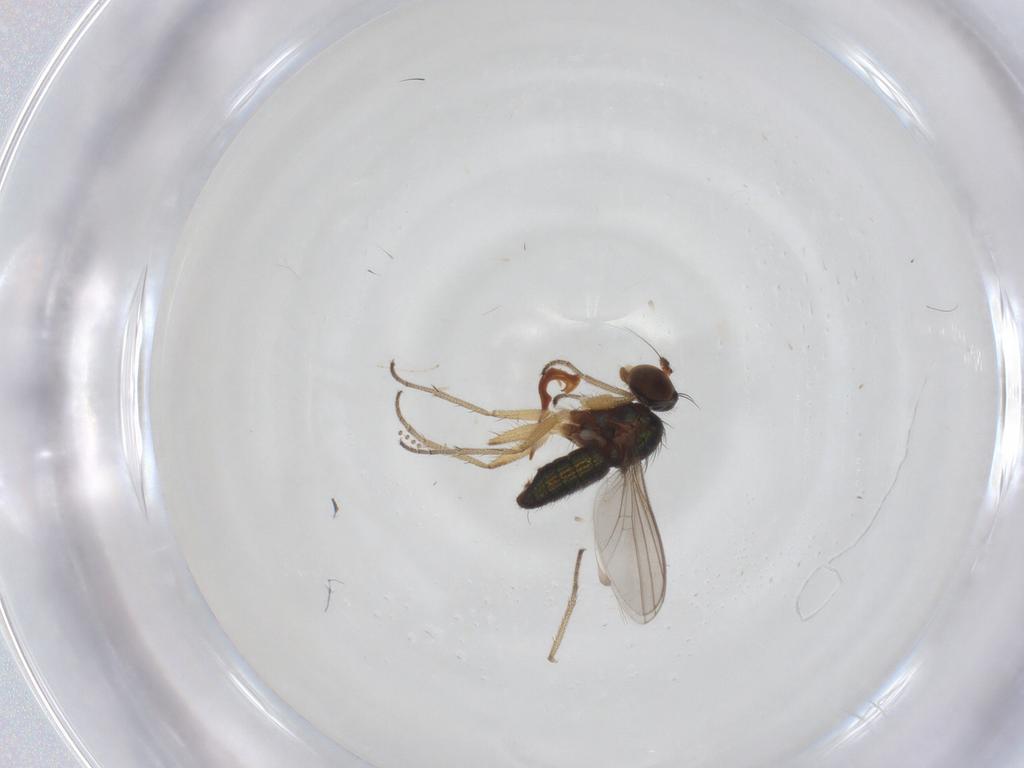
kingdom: Animalia
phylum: Arthropoda
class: Insecta
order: Diptera
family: Psychodidae
